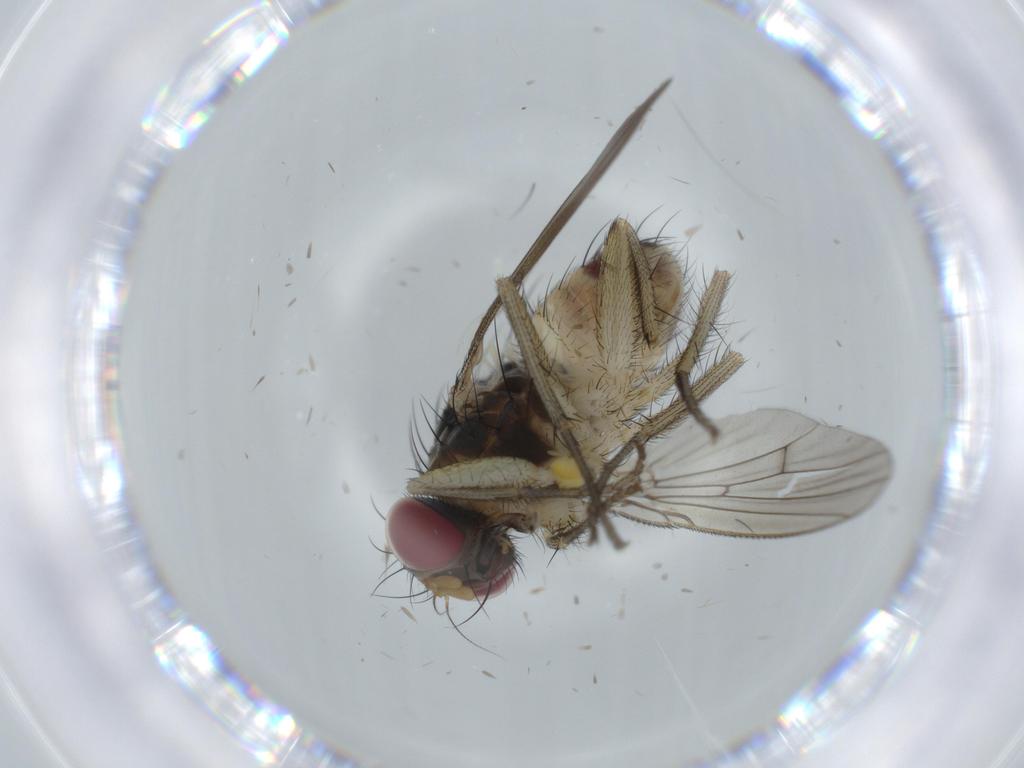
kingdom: Animalia
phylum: Arthropoda
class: Insecta
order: Diptera
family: Muscidae
